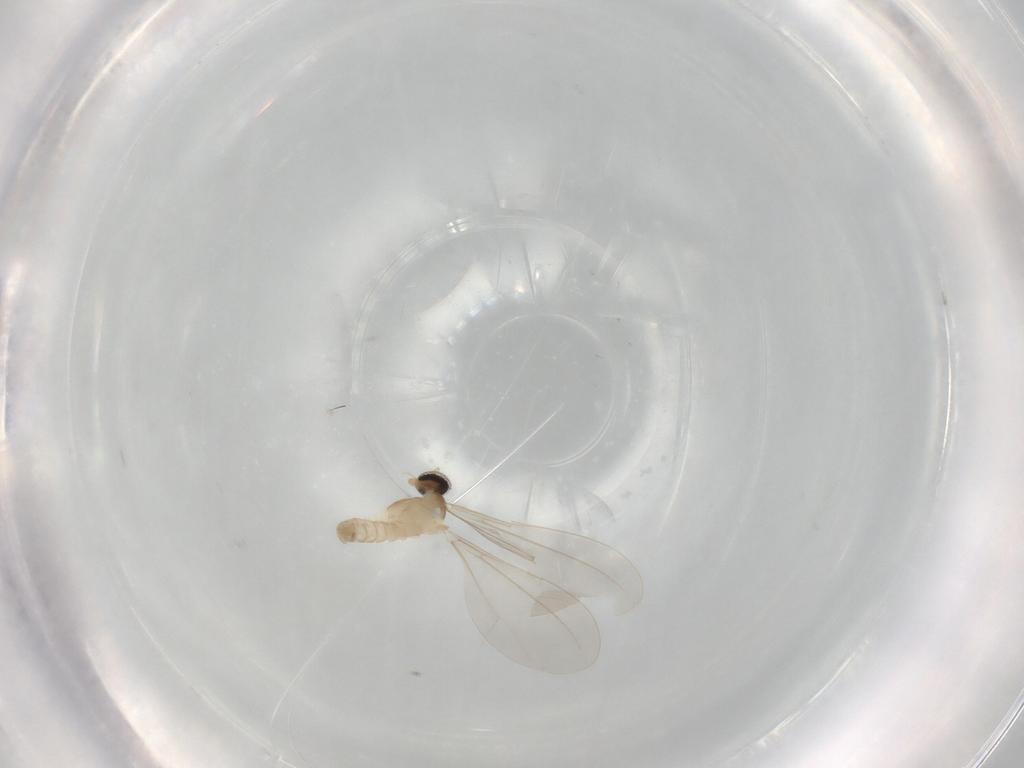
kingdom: Animalia
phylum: Arthropoda
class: Insecta
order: Diptera
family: Cecidomyiidae
